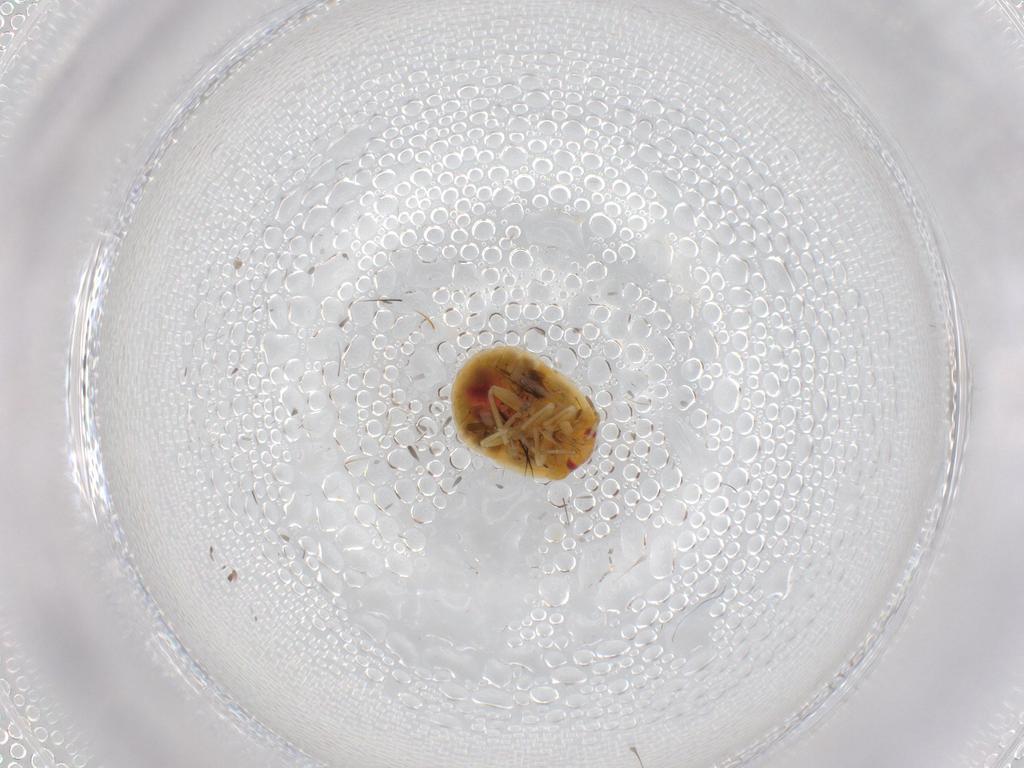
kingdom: Animalia
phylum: Arthropoda
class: Insecta
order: Hemiptera
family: Anthocoridae
